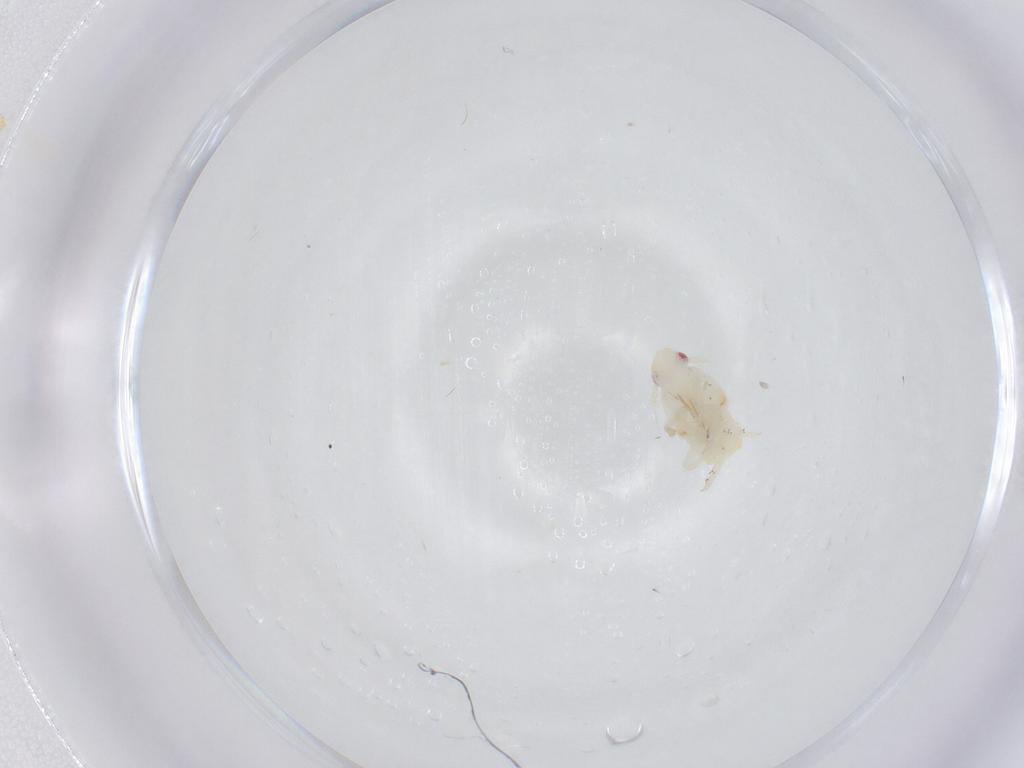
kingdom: Animalia
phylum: Arthropoda
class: Insecta
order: Hemiptera
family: Flatidae
